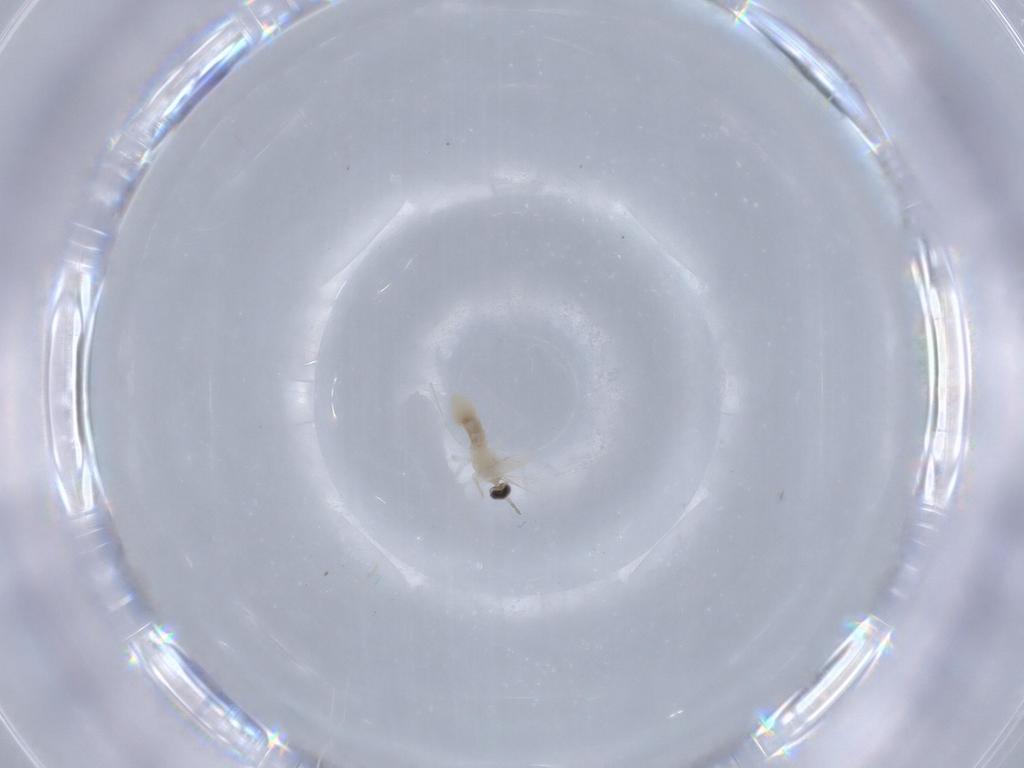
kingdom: Animalia
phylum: Arthropoda
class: Insecta
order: Diptera
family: Cecidomyiidae
